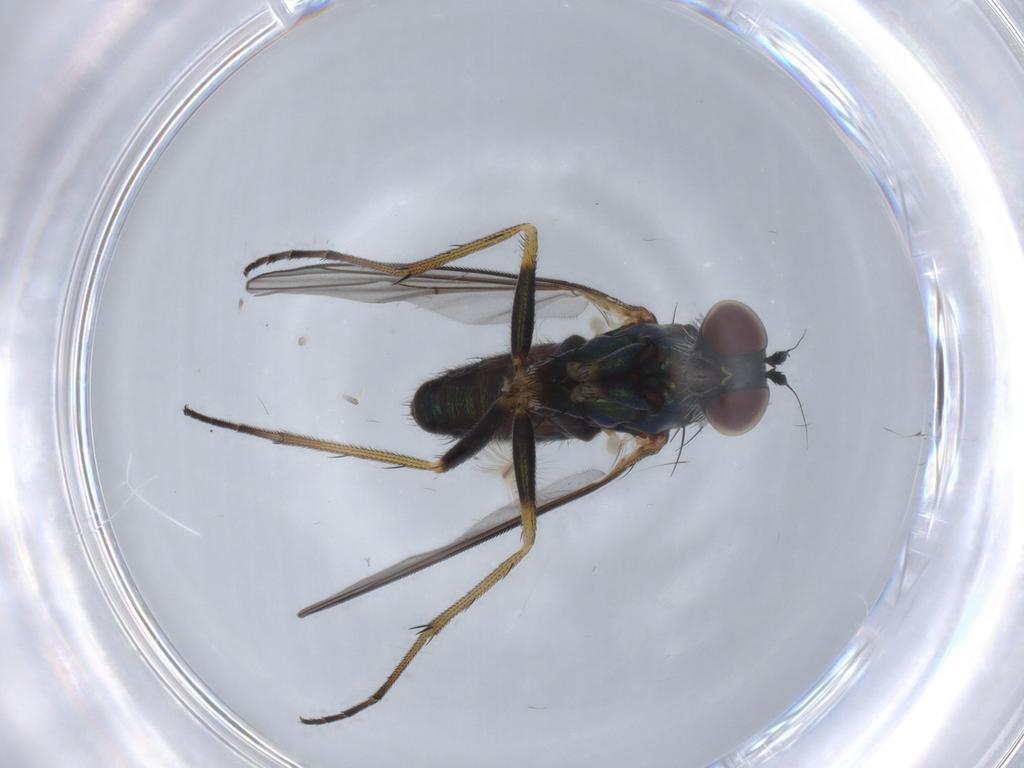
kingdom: Animalia
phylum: Arthropoda
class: Insecta
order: Diptera
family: Dolichopodidae
